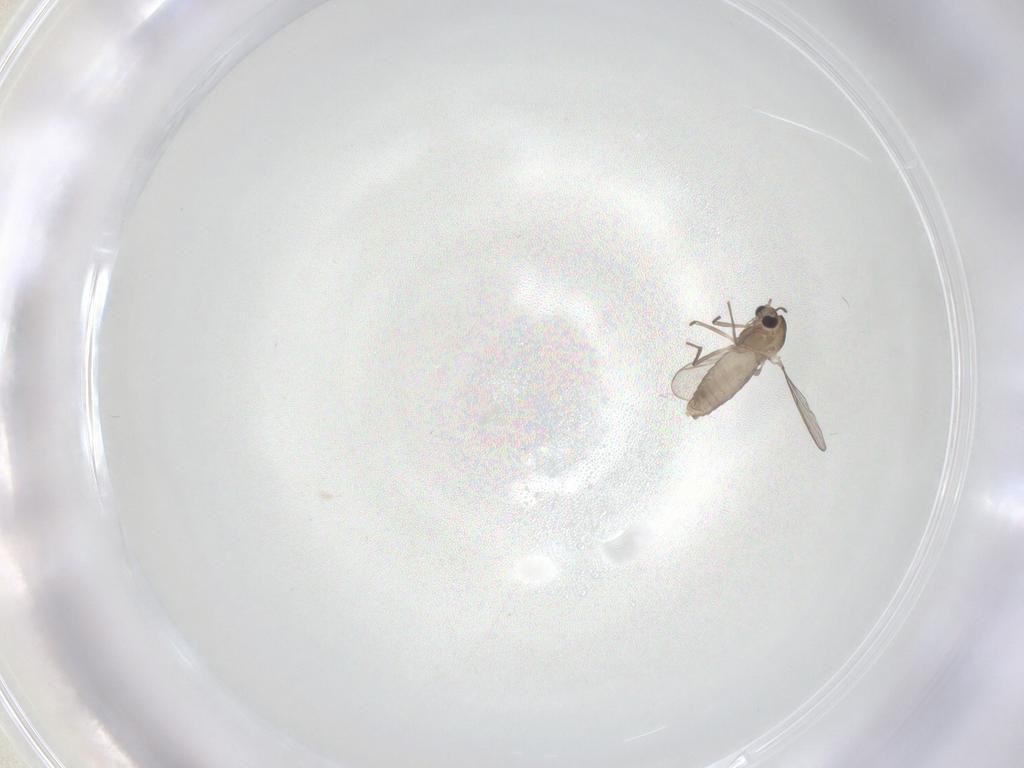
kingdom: Animalia
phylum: Arthropoda
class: Insecta
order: Diptera
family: Chironomidae
